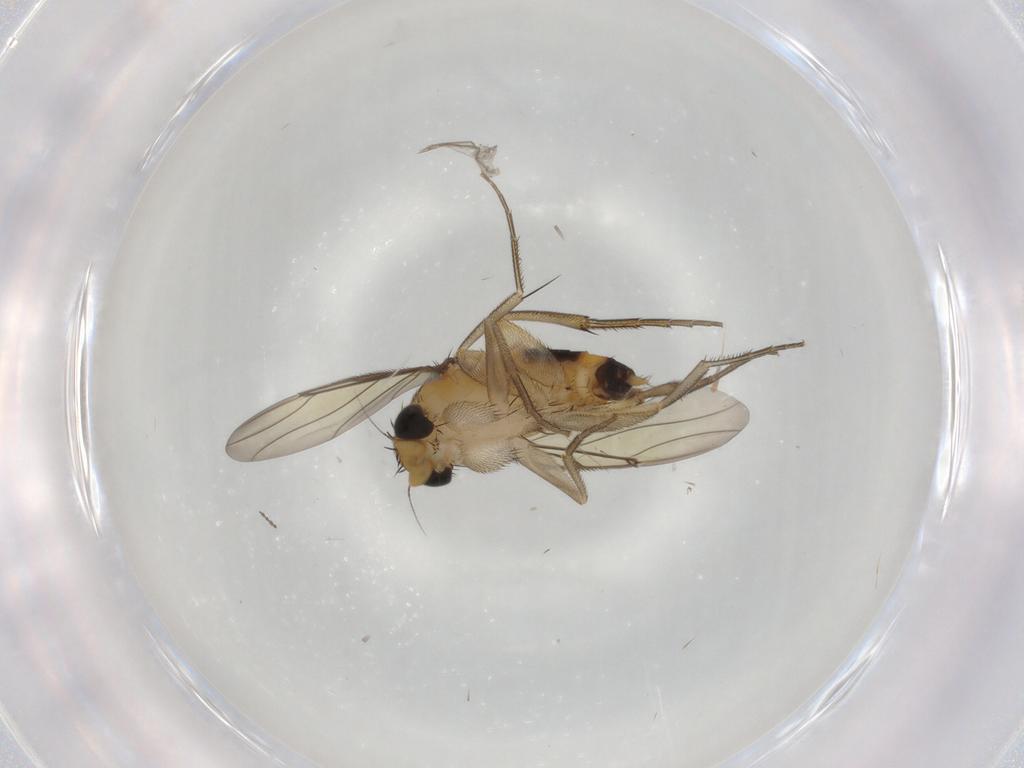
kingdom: Animalia
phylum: Arthropoda
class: Insecta
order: Diptera
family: Phoridae
